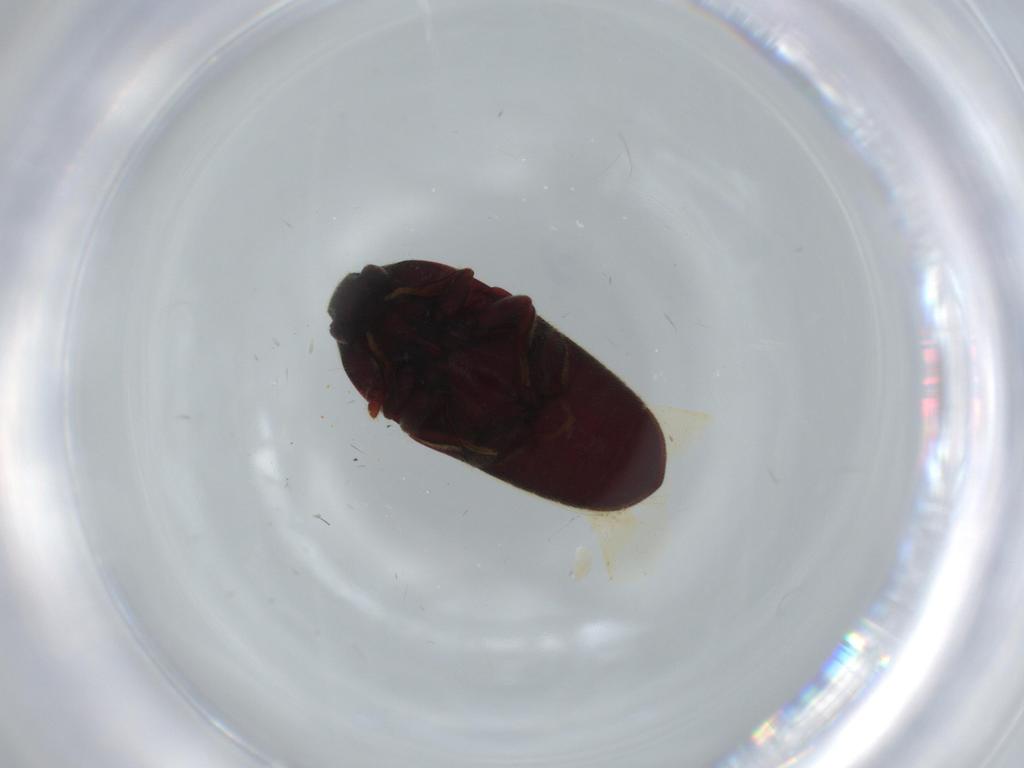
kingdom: Animalia
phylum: Arthropoda
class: Insecta
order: Coleoptera
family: Throscidae
